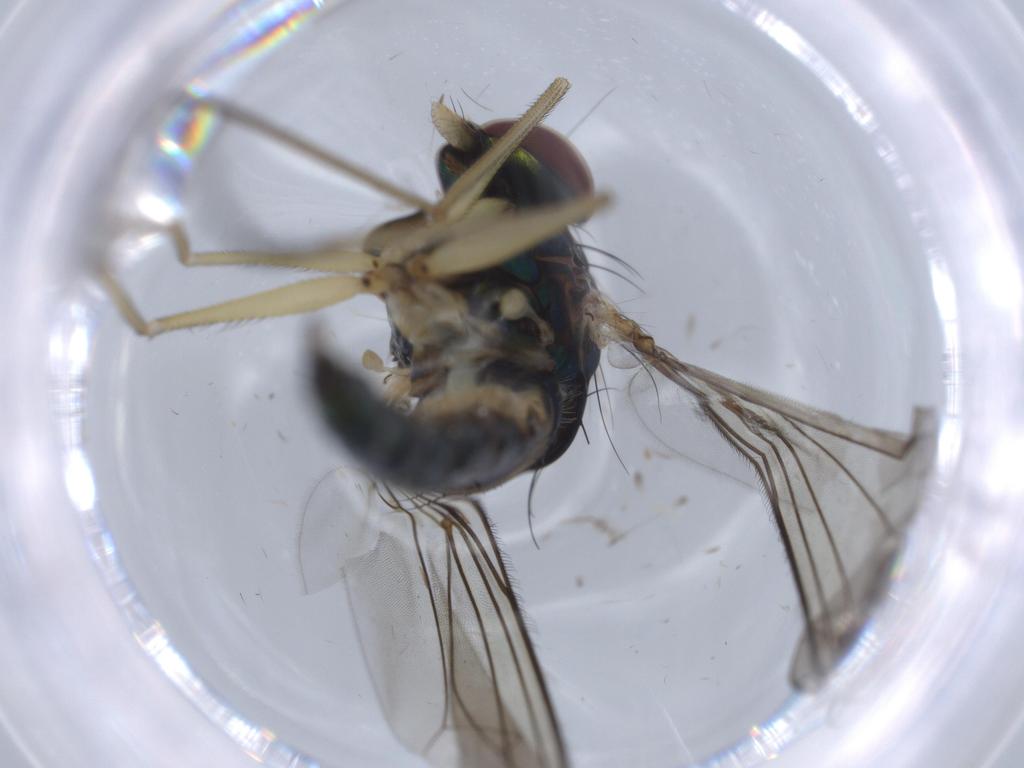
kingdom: Animalia
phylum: Arthropoda
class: Insecta
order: Diptera
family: Dolichopodidae
